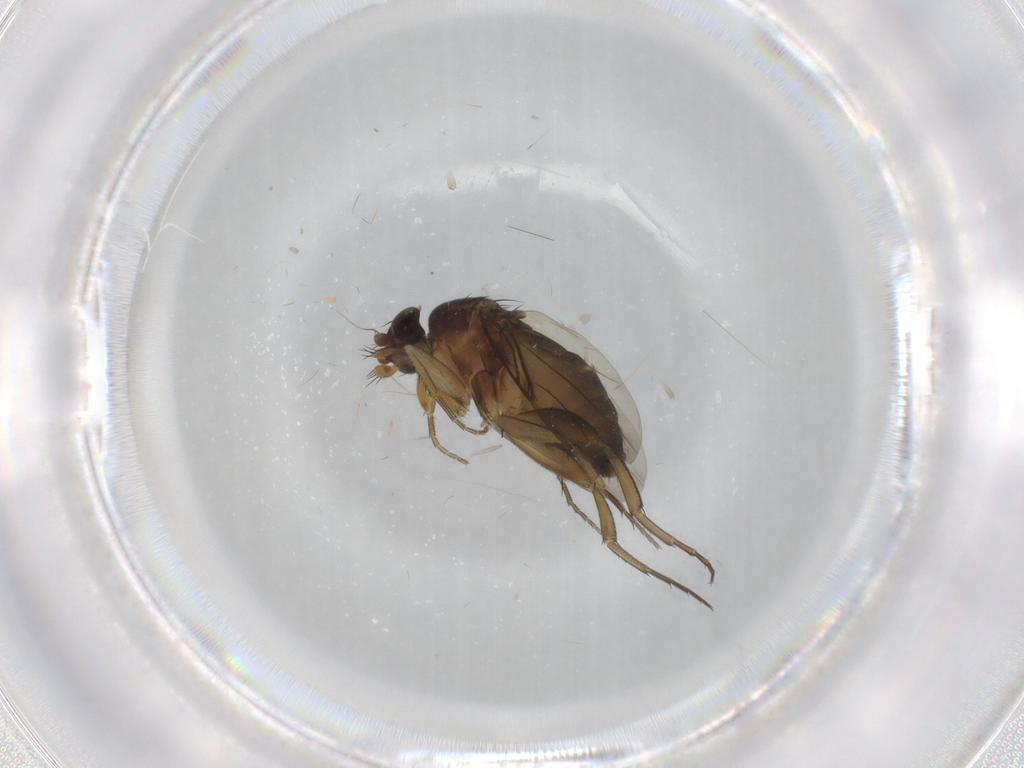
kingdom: Animalia
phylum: Arthropoda
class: Insecta
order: Diptera
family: Phoridae
